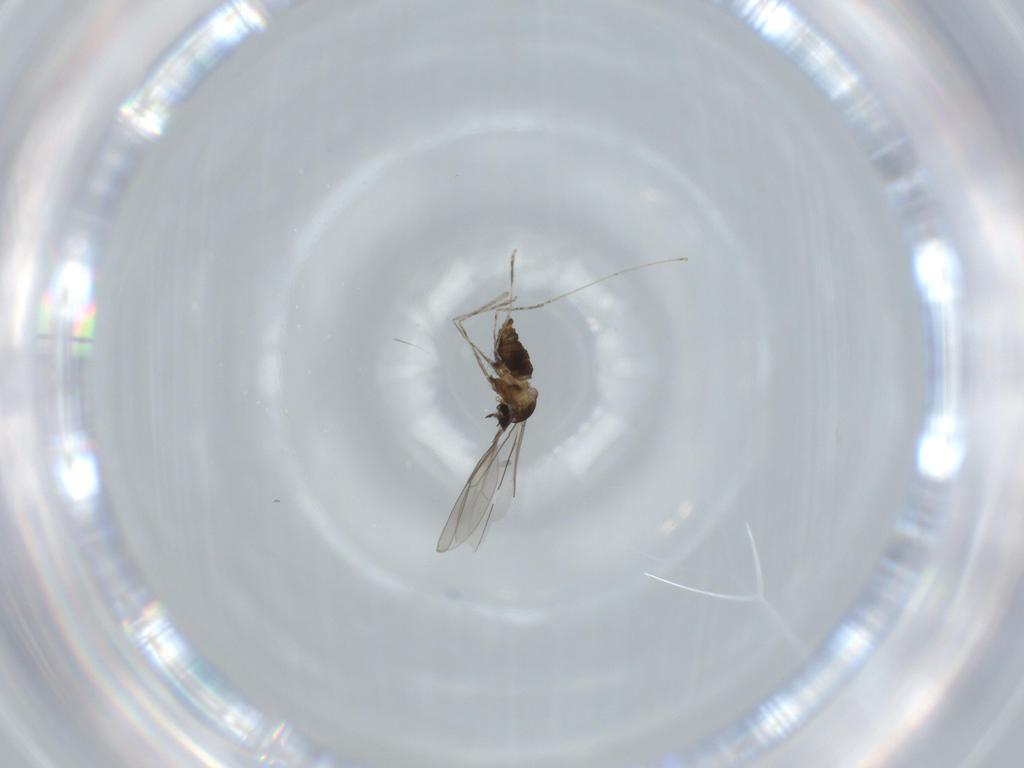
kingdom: Animalia
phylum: Arthropoda
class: Insecta
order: Diptera
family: Cecidomyiidae
